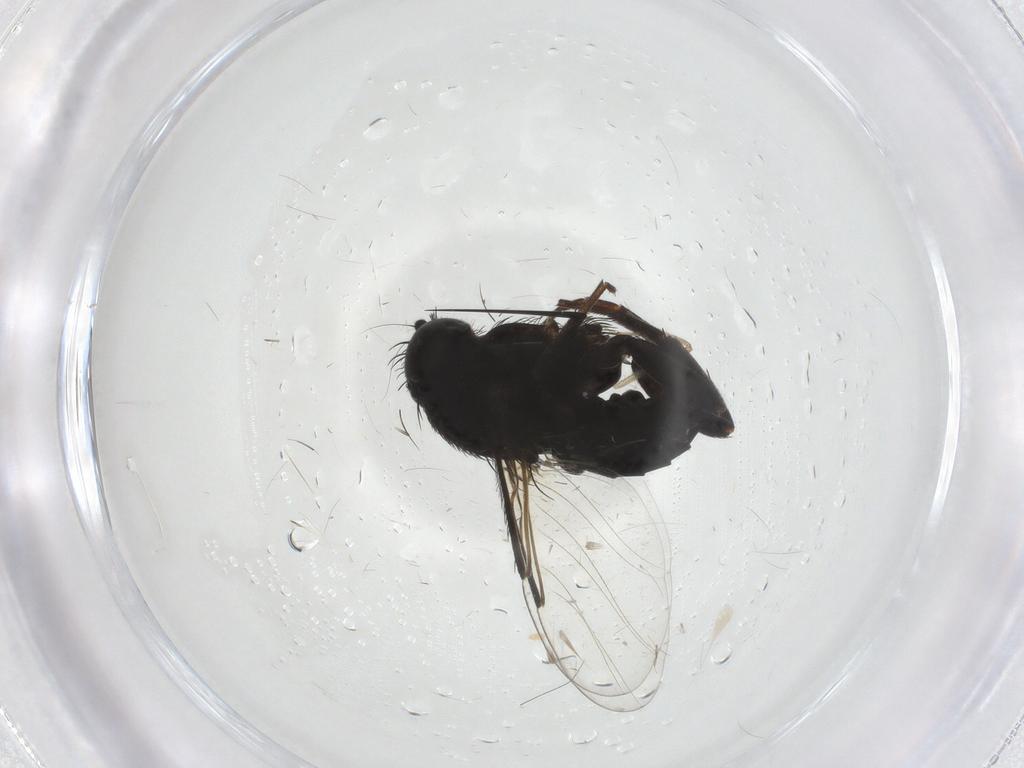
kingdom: Animalia
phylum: Arthropoda
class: Insecta
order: Diptera
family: Phoridae
